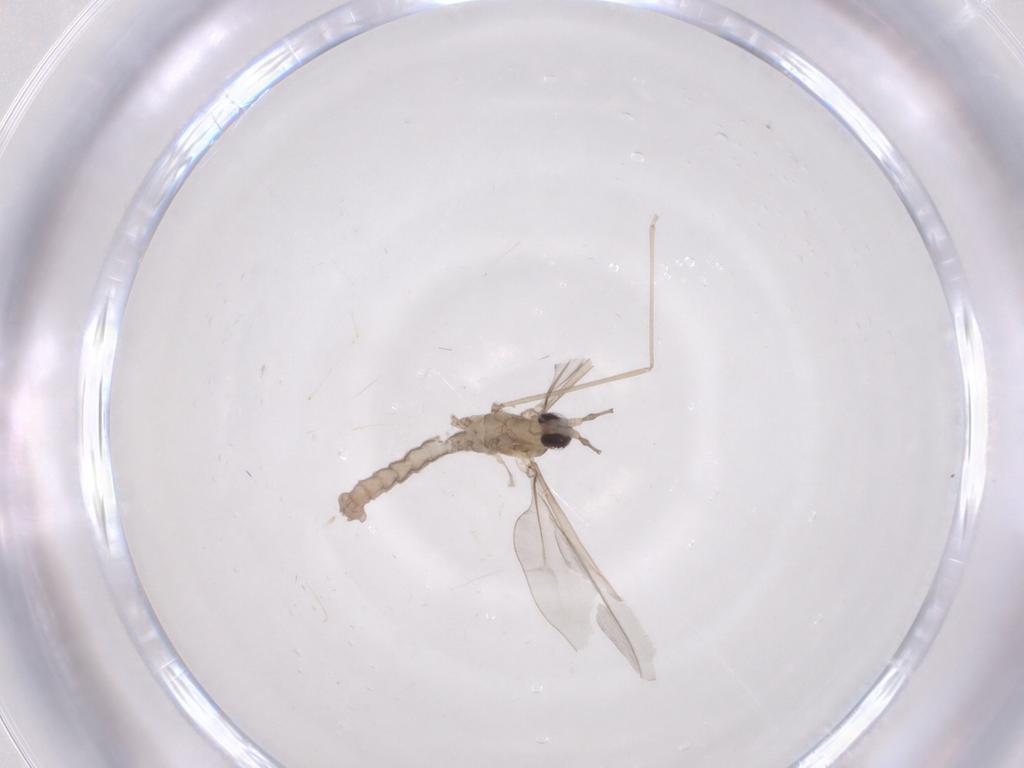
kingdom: Animalia
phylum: Arthropoda
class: Insecta
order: Diptera
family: Cecidomyiidae
